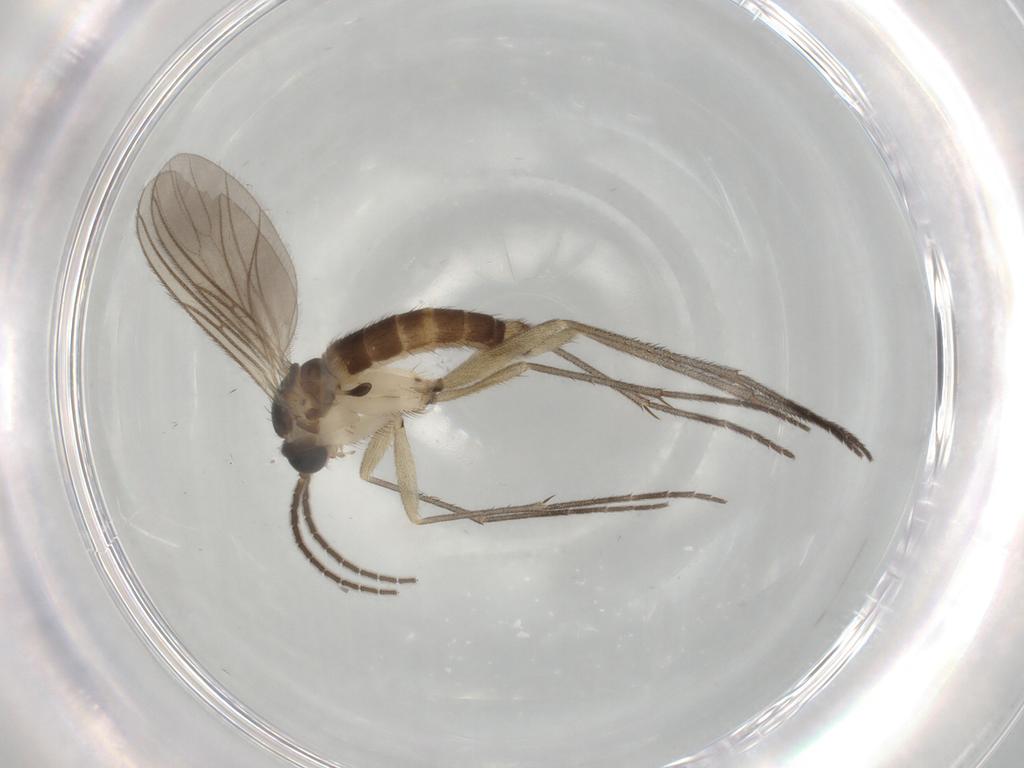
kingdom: Animalia
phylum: Arthropoda
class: Insecta
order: Diptera
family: Sciaridae
